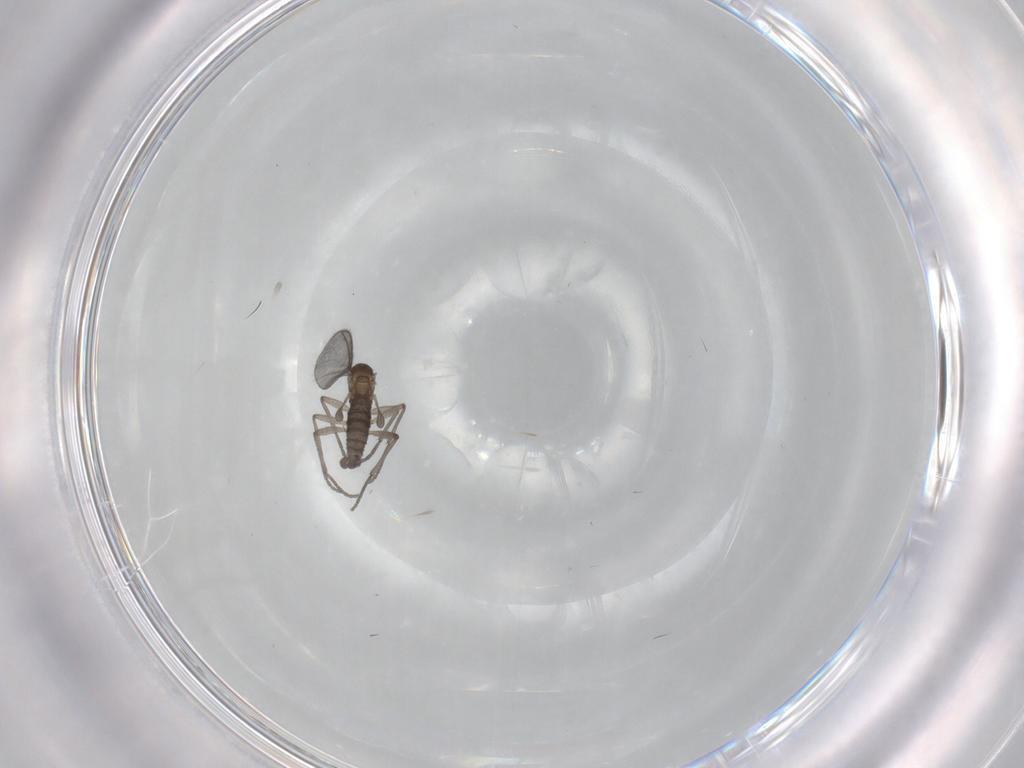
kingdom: Animalia
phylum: Arthropoda
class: Insecta
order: Diptera
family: Sciaridae
